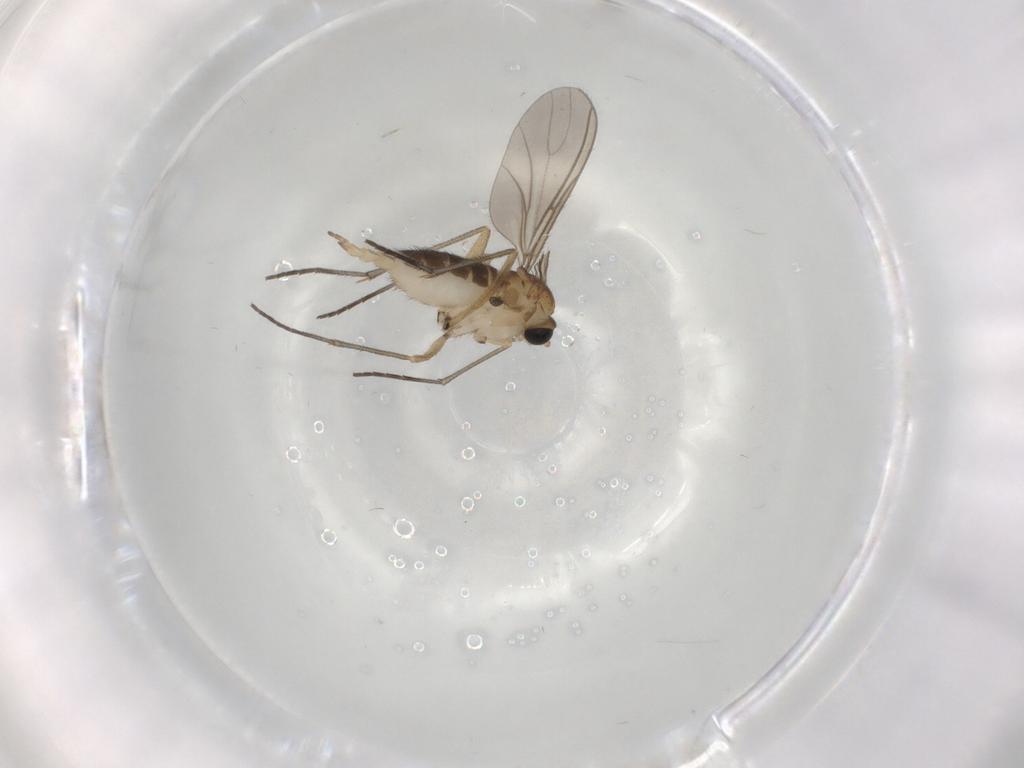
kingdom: Animalia
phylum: Arthropoda
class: Insecta
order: Diptera
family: Sciaridae
